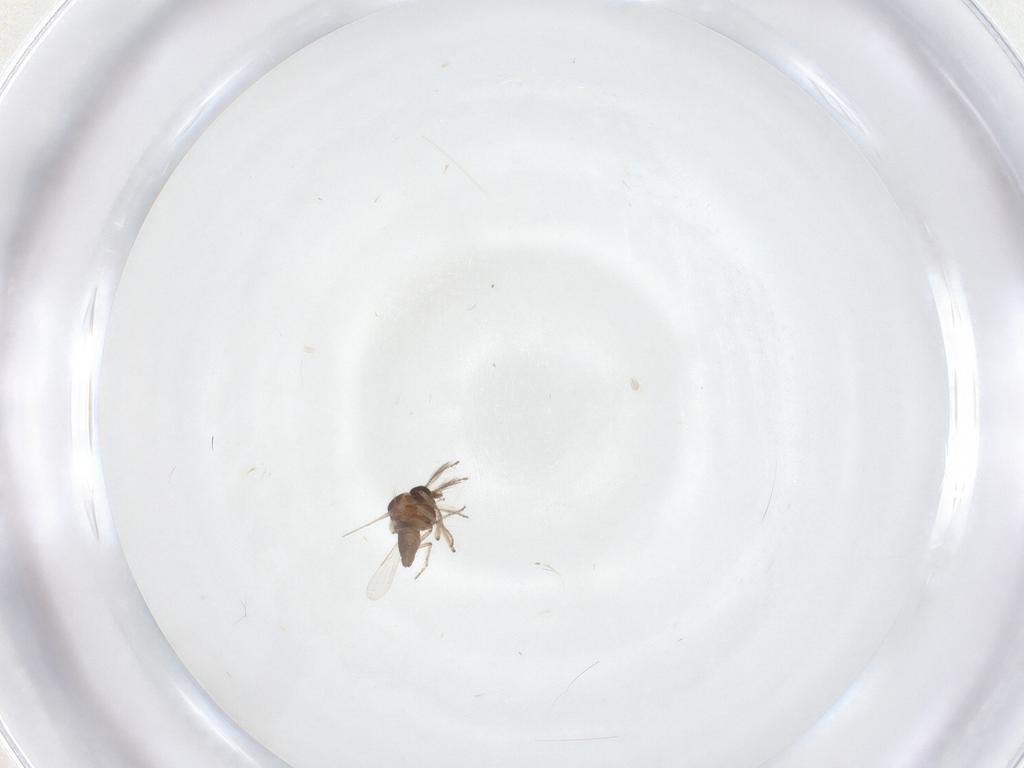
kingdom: Animalia
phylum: Arthropoda
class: Insecta
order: Diptera
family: Ceratopogonidae
